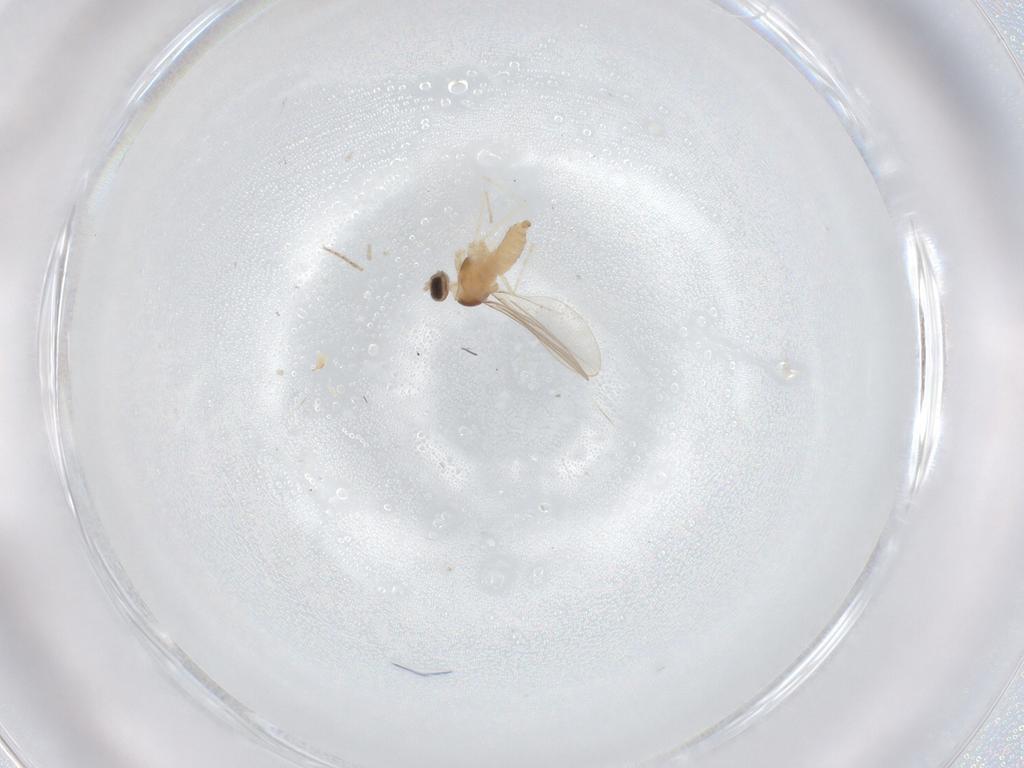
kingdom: Animalia
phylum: Arthropoda
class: Insecta
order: Diptera
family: Cecidomyiidae
